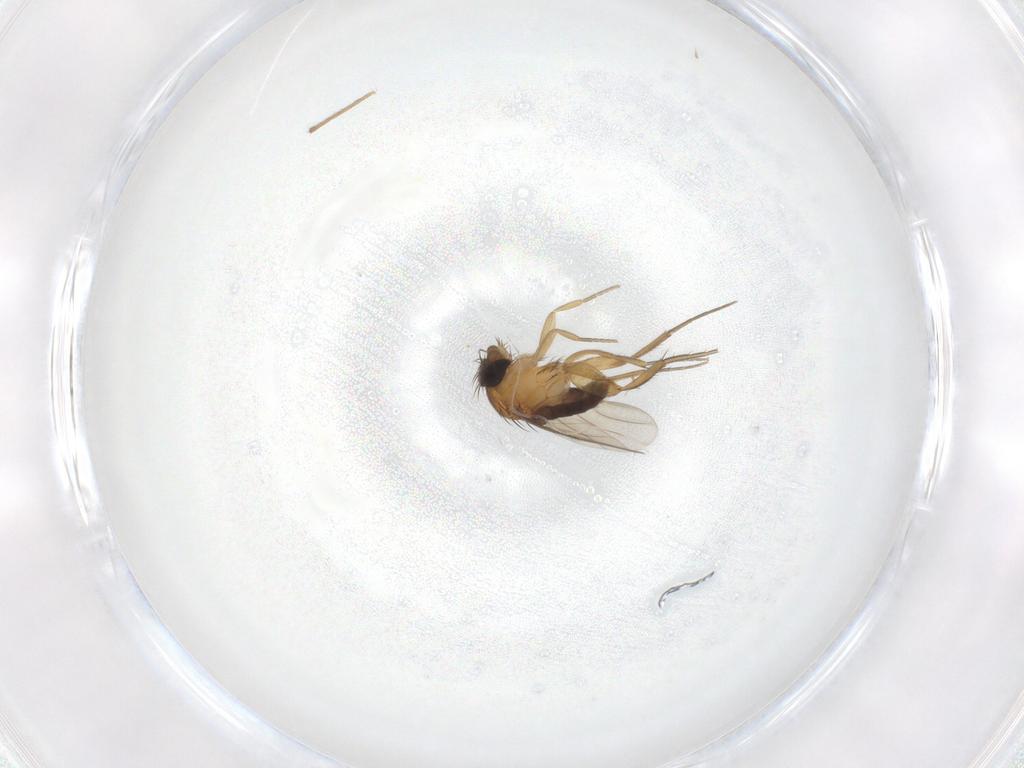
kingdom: Animalia
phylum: Arthropoda
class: Insecta
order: Diptera
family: Phoridae
